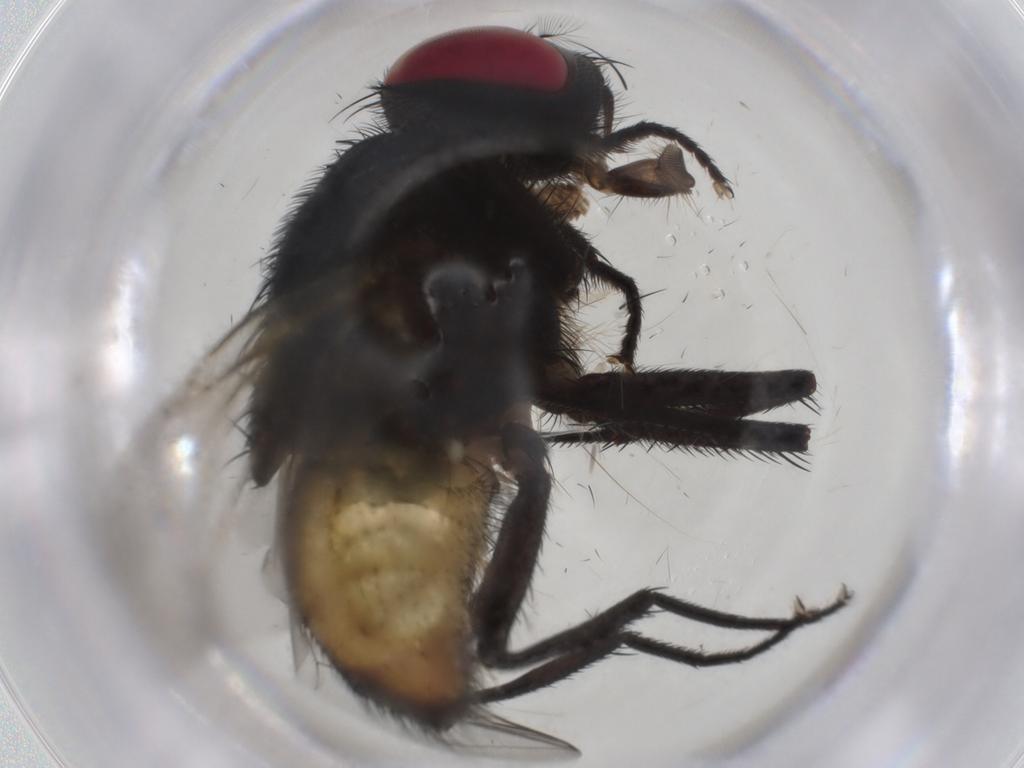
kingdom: Animalia
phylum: Arthropoda
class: Insecta
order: Diptera
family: Muscidae
